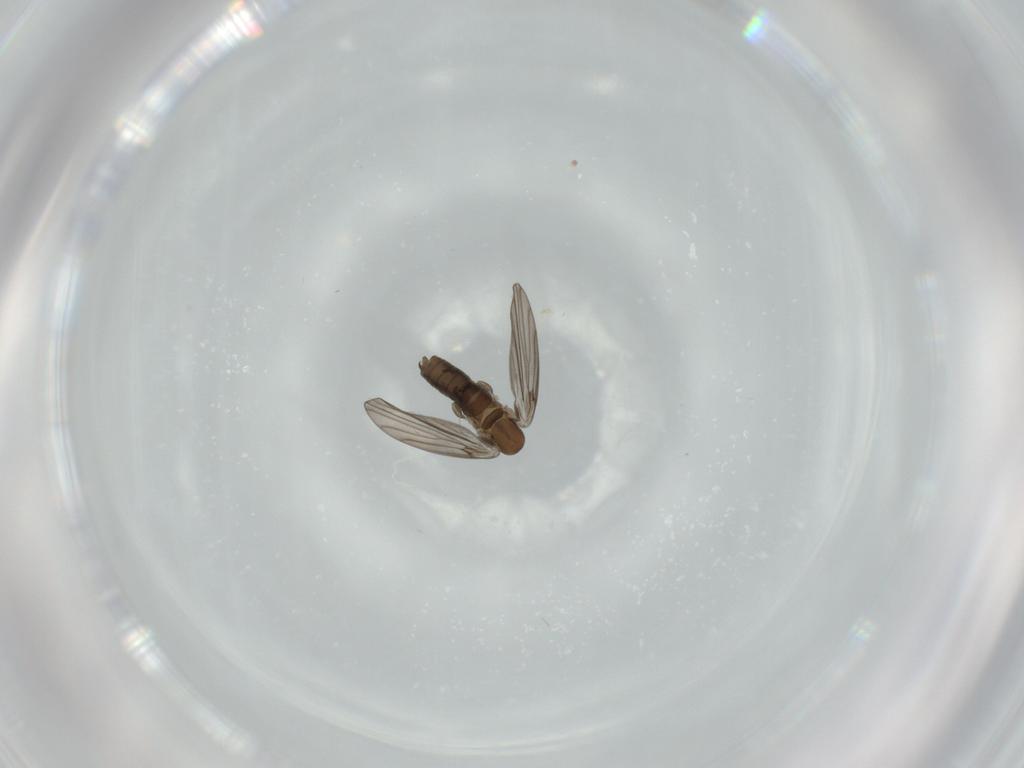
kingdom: Animalia
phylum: Arthropoda
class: Insecta
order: Diptera
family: Psychodidae
